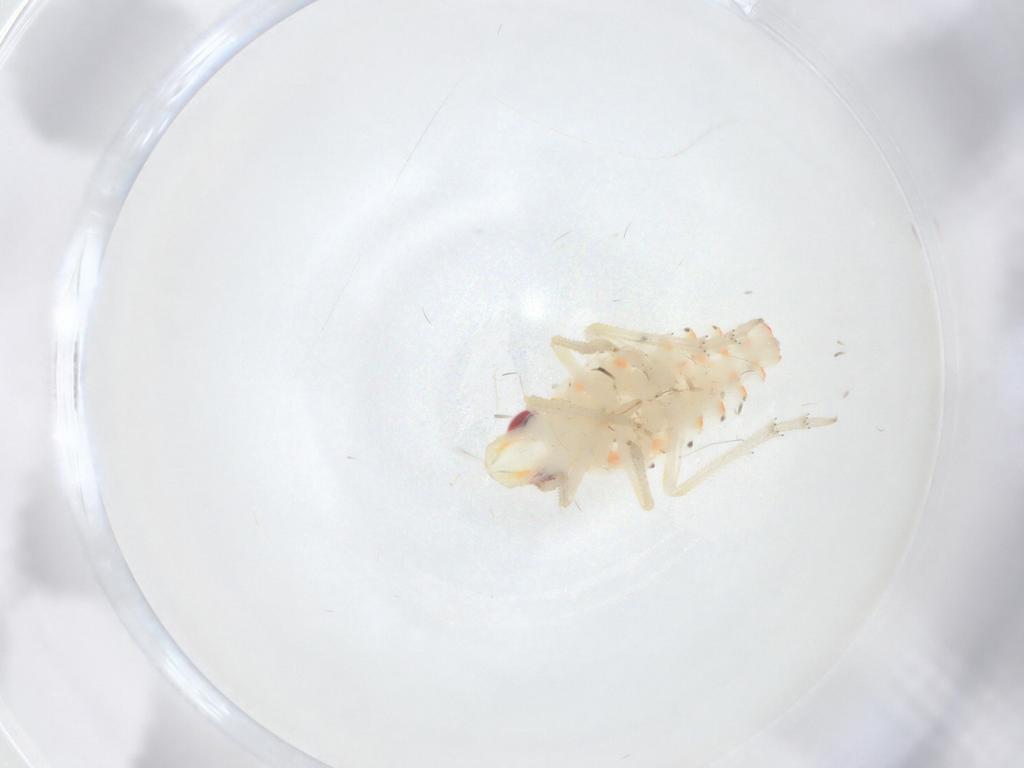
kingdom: Animalia
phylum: Arthropoda
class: Insecta
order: Hemiptera
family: Tropiduchidae
